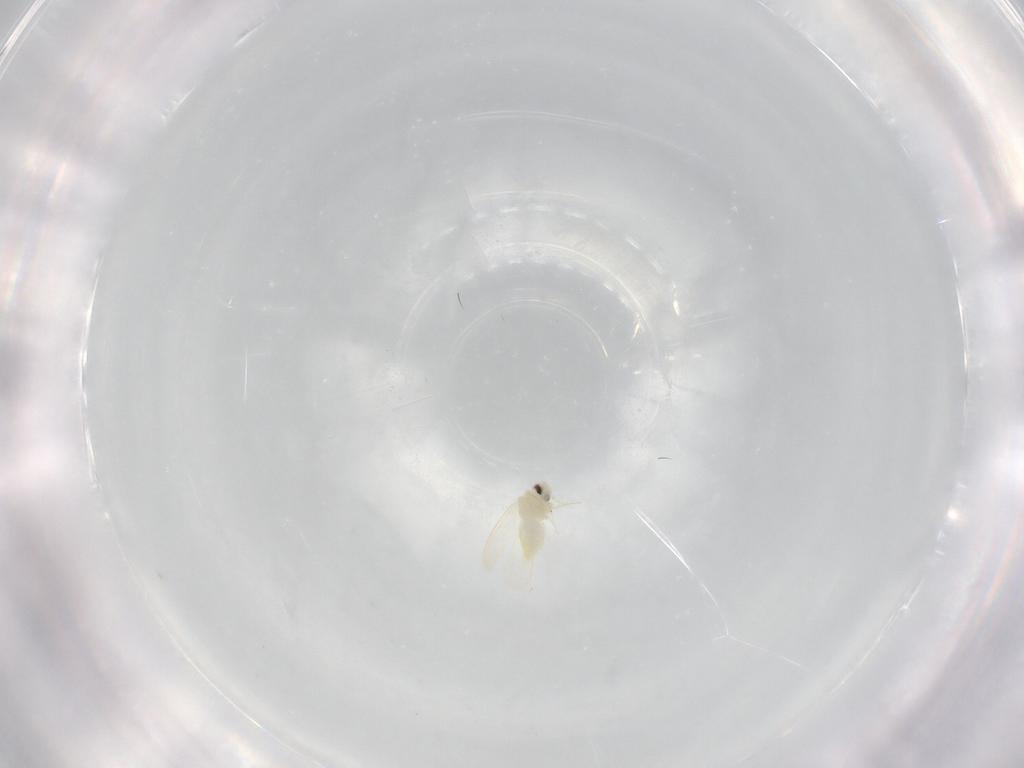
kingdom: Animalia
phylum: Arthropoda
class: Insecta
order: Hemiptera
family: Aleyrodidae
